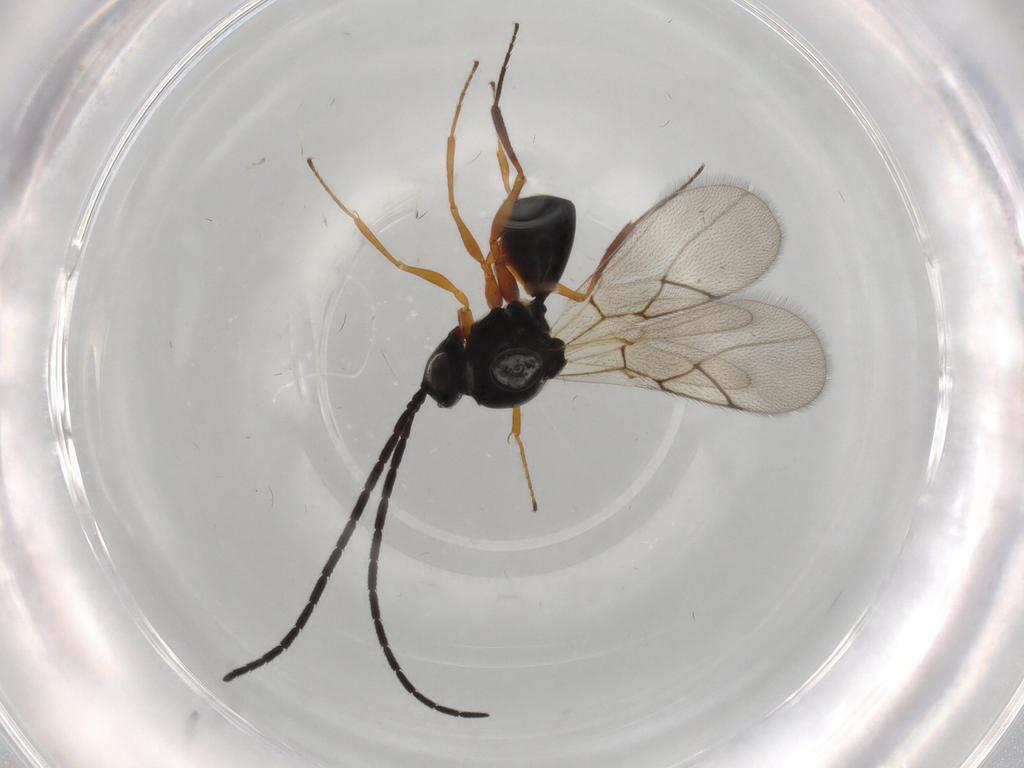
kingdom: Animalia
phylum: Arthropoda
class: Insecta
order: Hymenoptera
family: Figitidae
